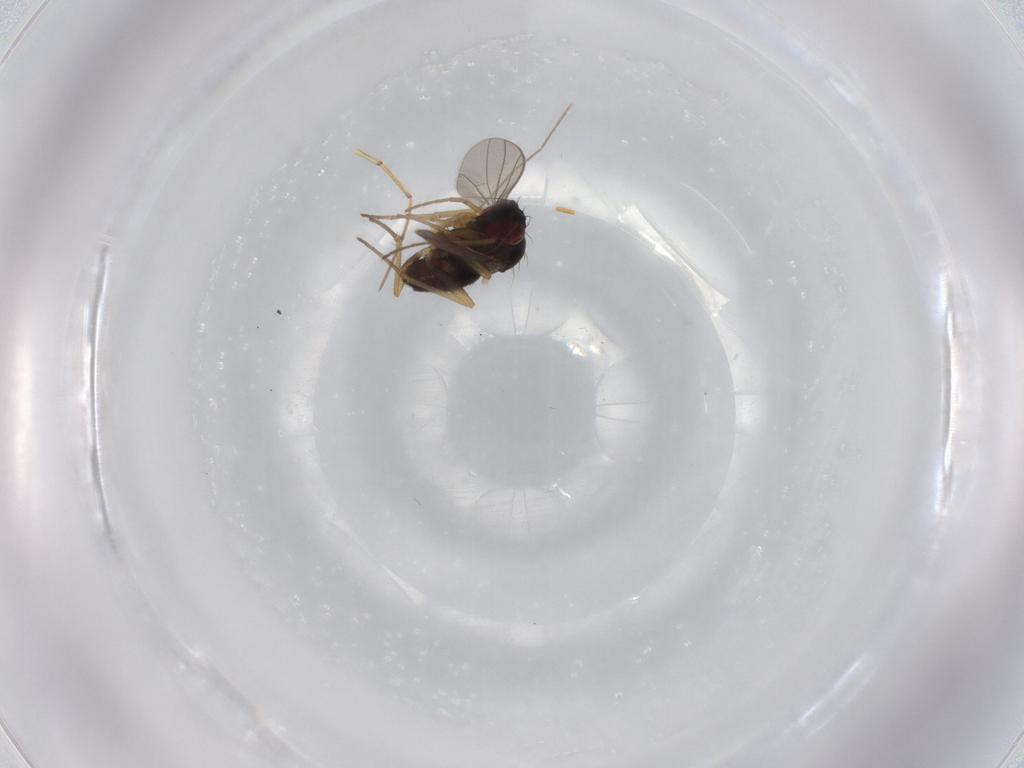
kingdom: Animalia
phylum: Arthropoda
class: Insecta
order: Diptera
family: Dolichopodidae
